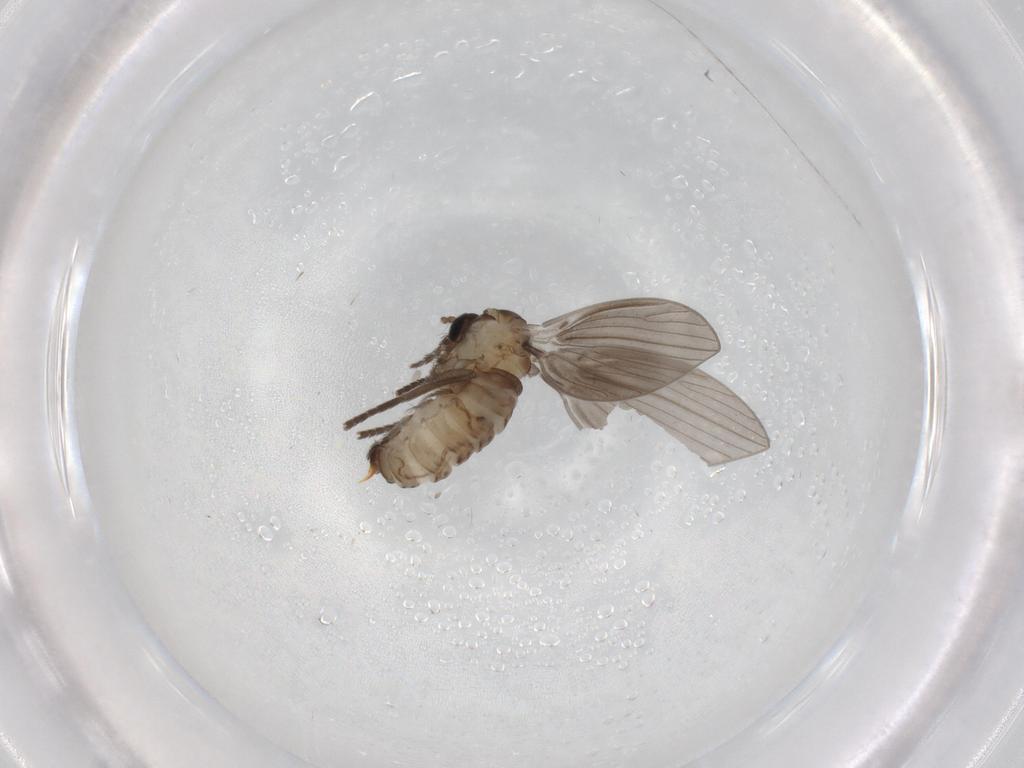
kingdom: Animalia
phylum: Arthropoda
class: Insecta
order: Diptera
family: Psychodidae
